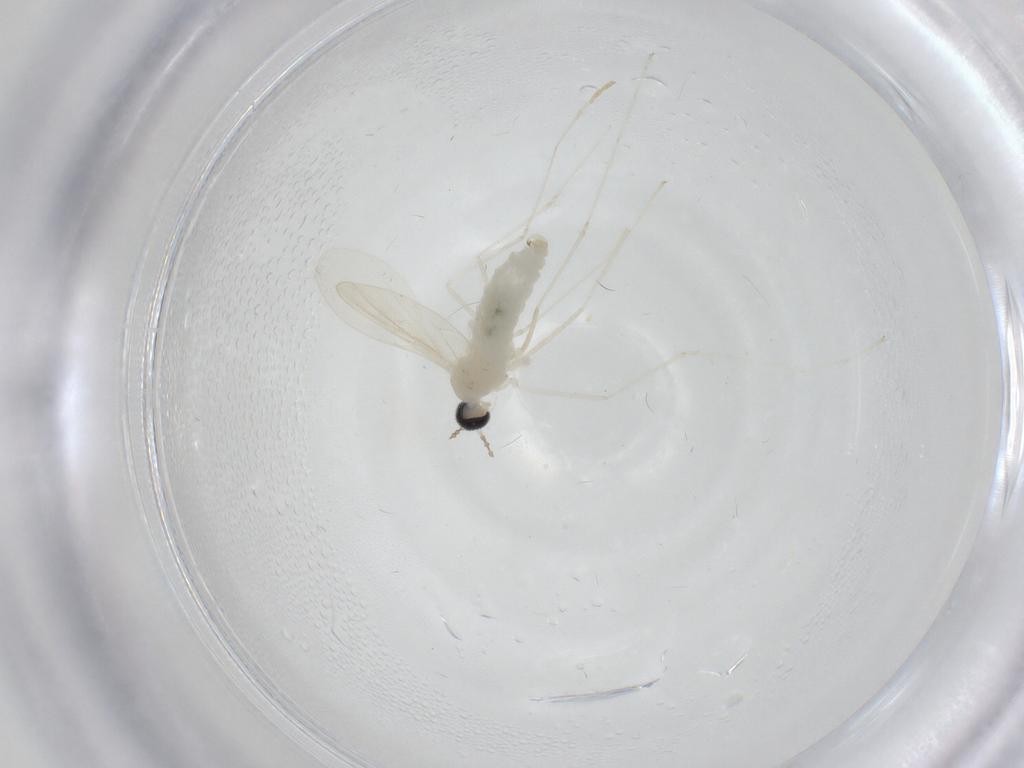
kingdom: Animalia
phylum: Arthropoda
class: Insecta
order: Diptera
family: Cecidomyiidae
